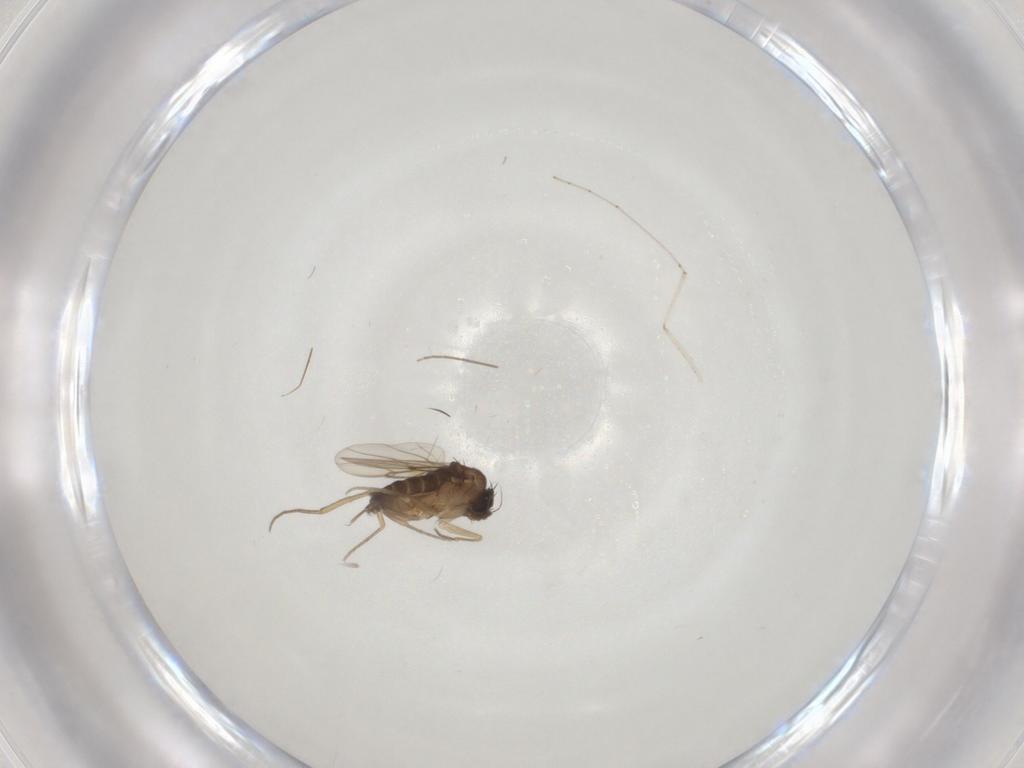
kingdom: Animalia
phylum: Arthropoda
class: Insecta
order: Diptera
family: Phoridae
